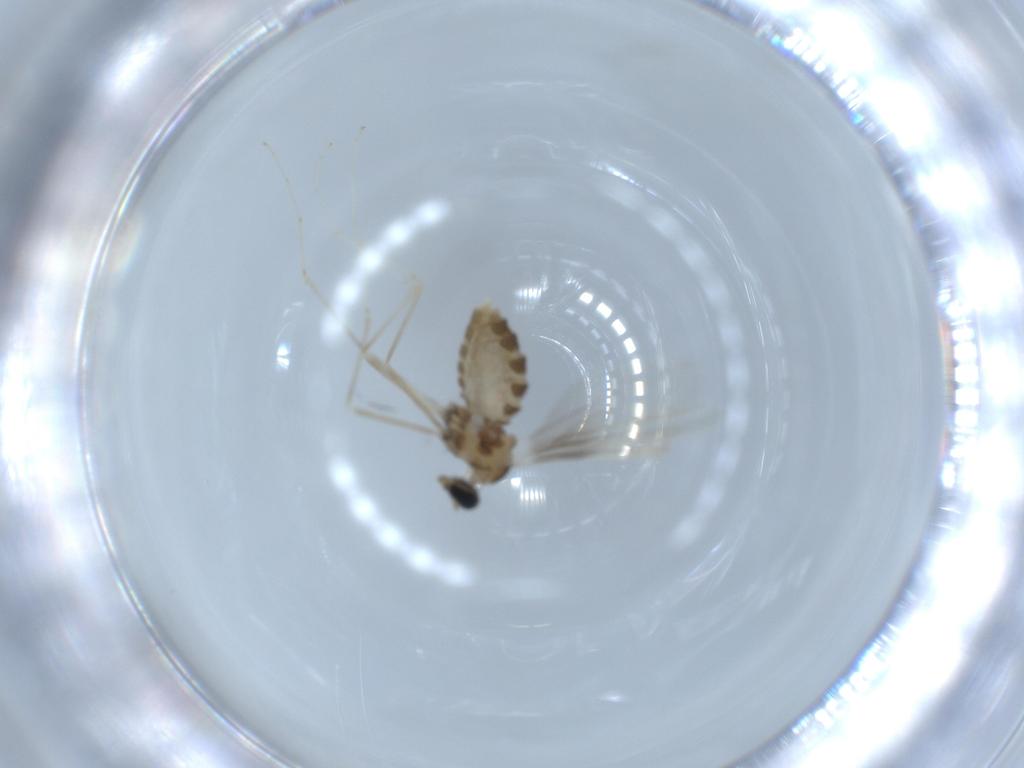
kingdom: Animalia
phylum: Arthropoda
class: Insecta
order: Diptera
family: Cecidomyiidae
